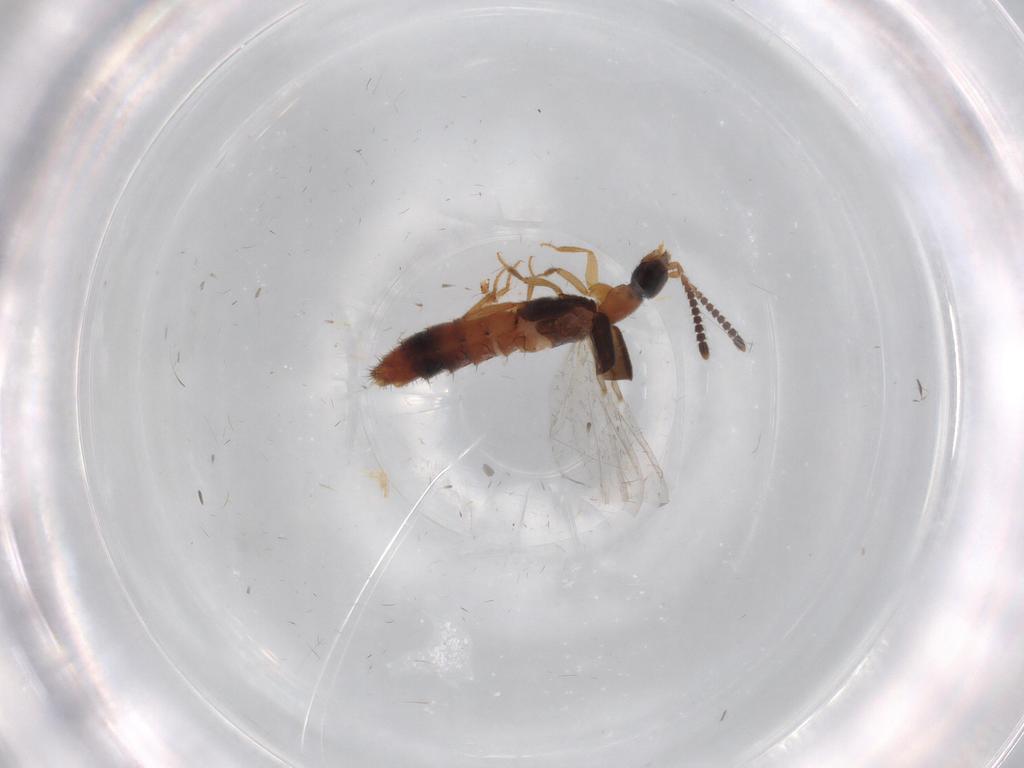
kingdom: Animalia
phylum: Arthropoda
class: Insecta
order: Coleoptera
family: Scirtidae
